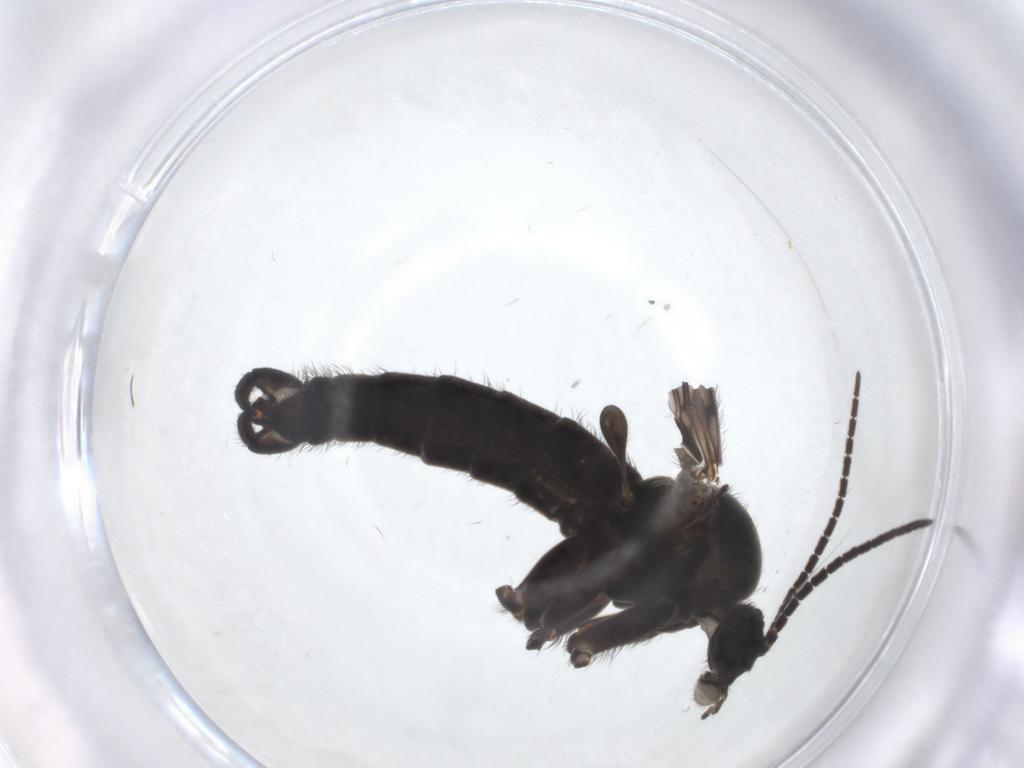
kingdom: Animalia
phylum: Arthropoda
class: Insecta
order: Diptera
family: Sciaridae
